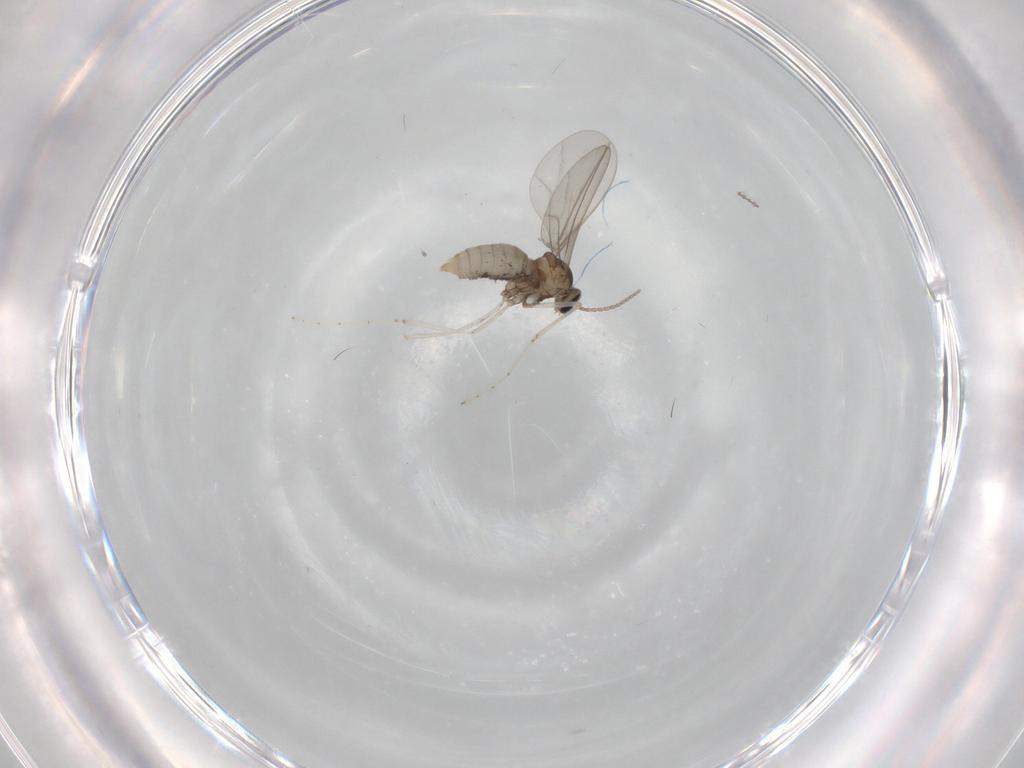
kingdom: Animalia
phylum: Arthropoda
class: Insecta
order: Diptera
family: Cecidomyiidae
